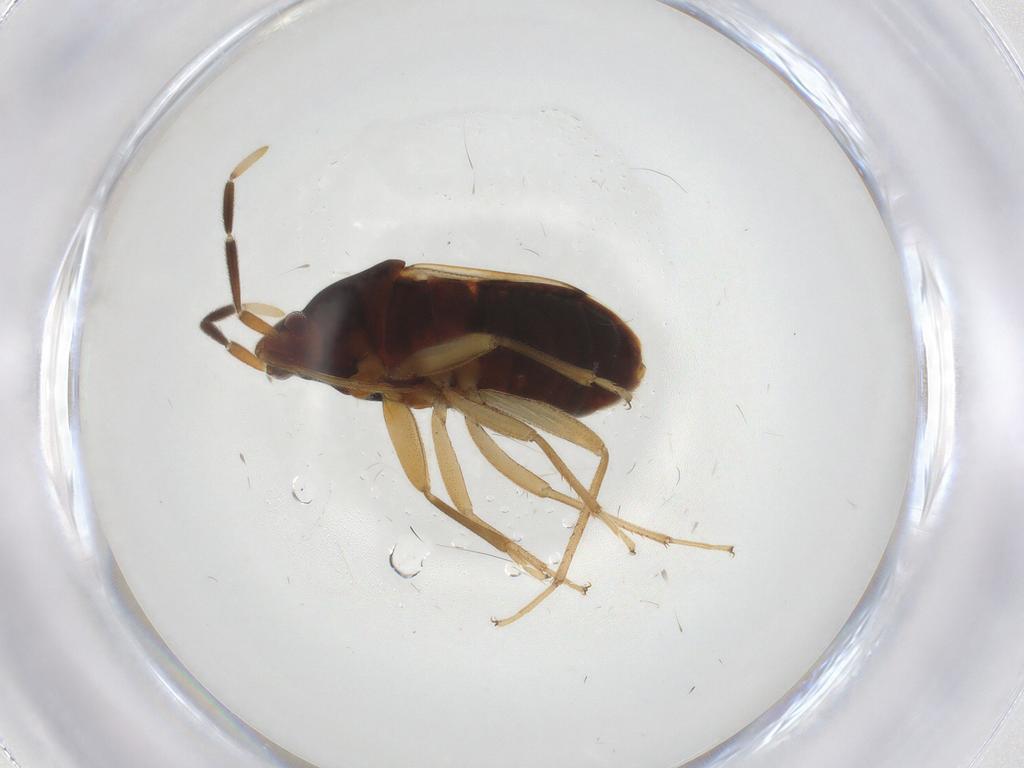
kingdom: Animalia
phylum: Arthropoda
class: Insecta
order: Hemiptera
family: Rhyparochromidae
